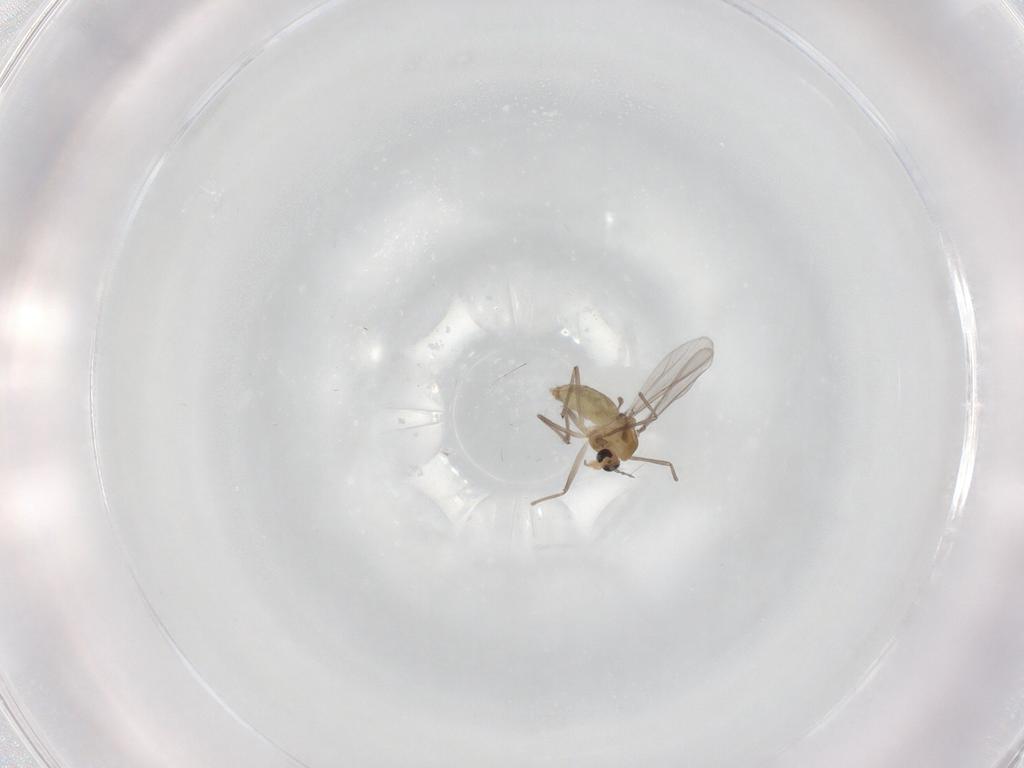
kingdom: Animalia
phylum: Arthropoda
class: Insecta
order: Diptera
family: Chironomidae
